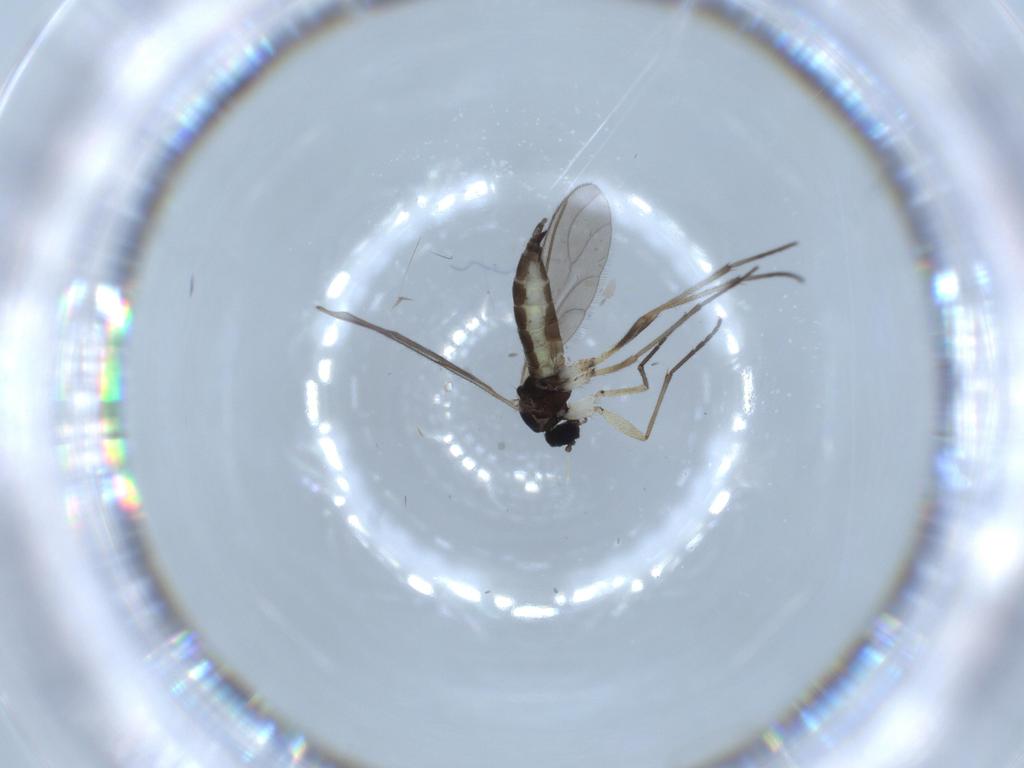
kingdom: Animalia
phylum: Arthropoda
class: Insecta
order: Diptera
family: Sciaridae
